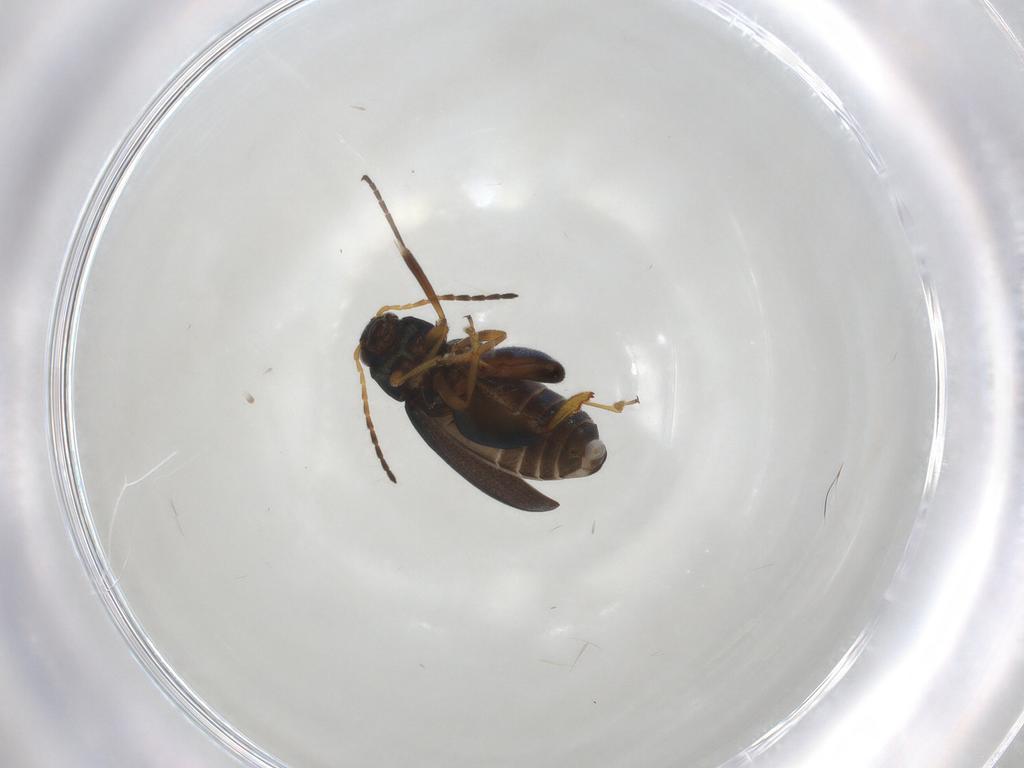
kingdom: Animalia
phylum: Arthropoda
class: Insecta
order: Coleoptera
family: Chrysomelidae
